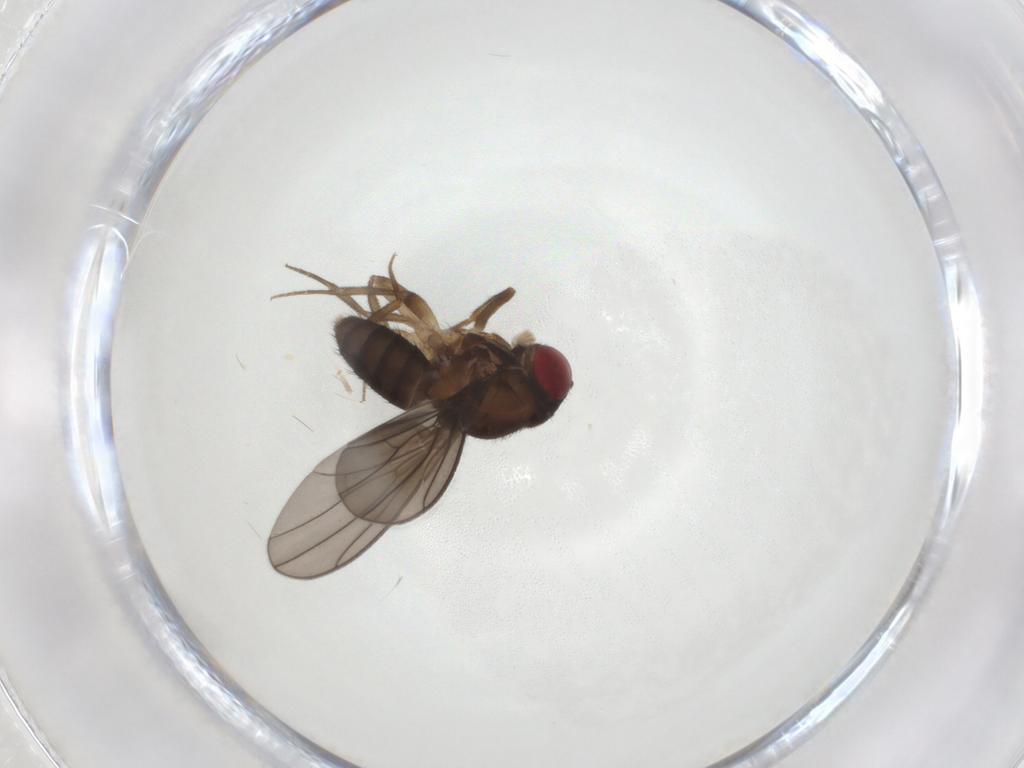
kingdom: Animalia
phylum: Arthropoda
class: Insecta
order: Diptera
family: Drosophilidae
